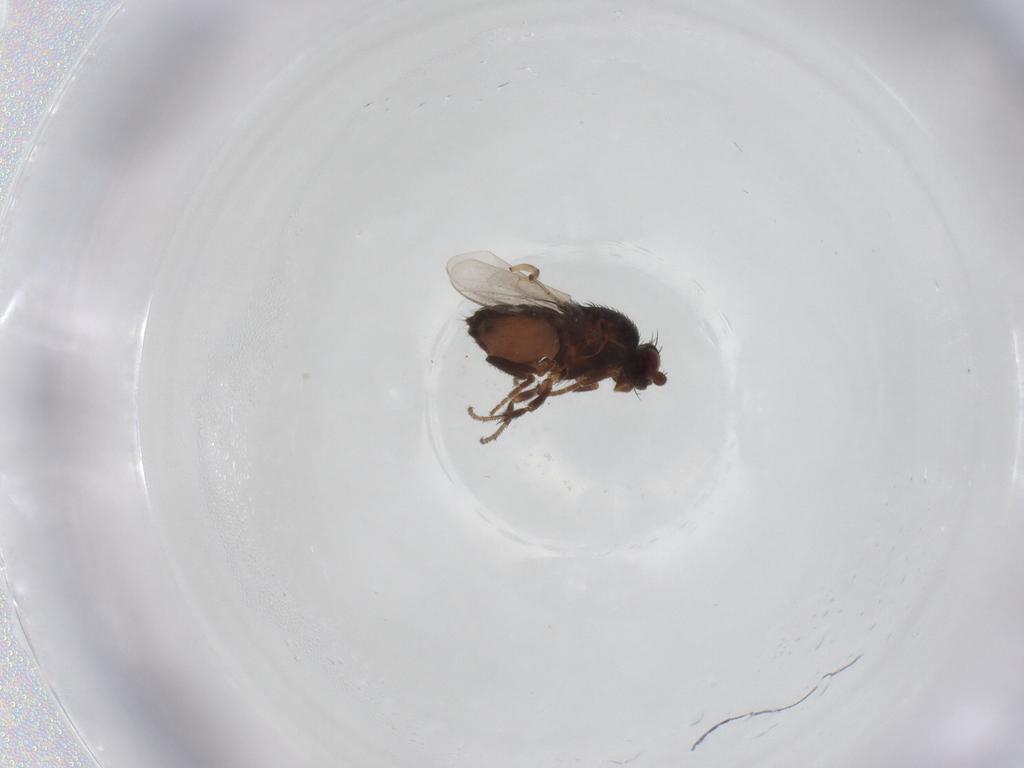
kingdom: Animalia
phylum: Arthropoda
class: Insecta
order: Diptera
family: Sphaeroceridae
